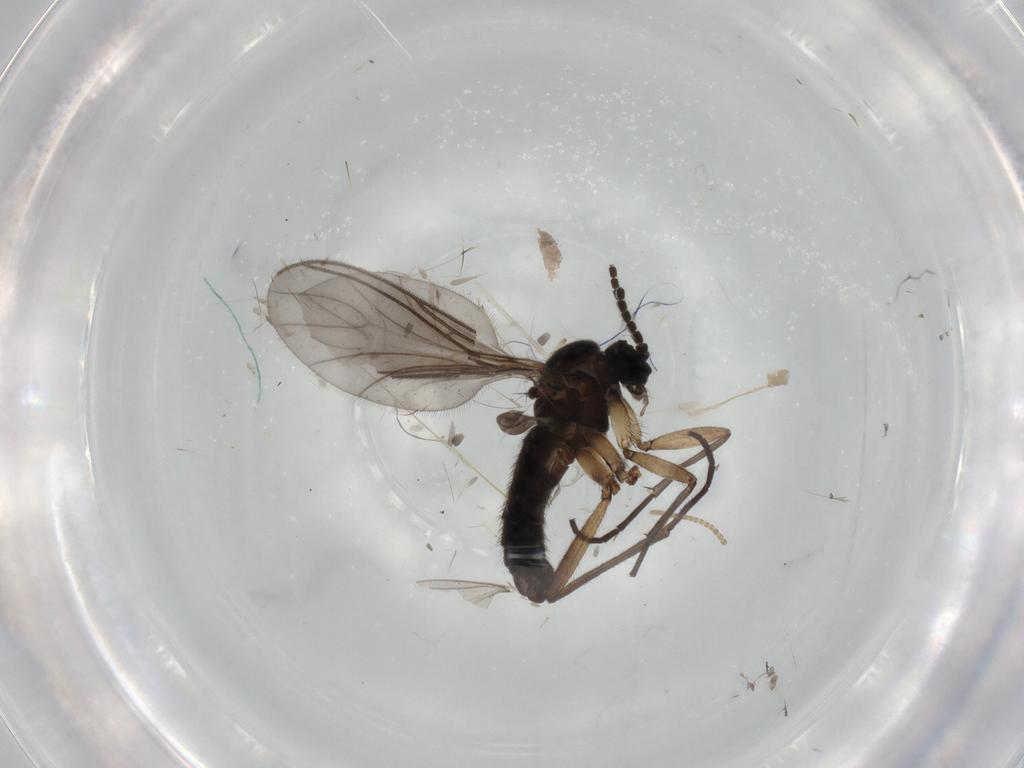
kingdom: Animalia
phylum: Arthropoda
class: Insecta
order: Diptera
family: Sciaridae
